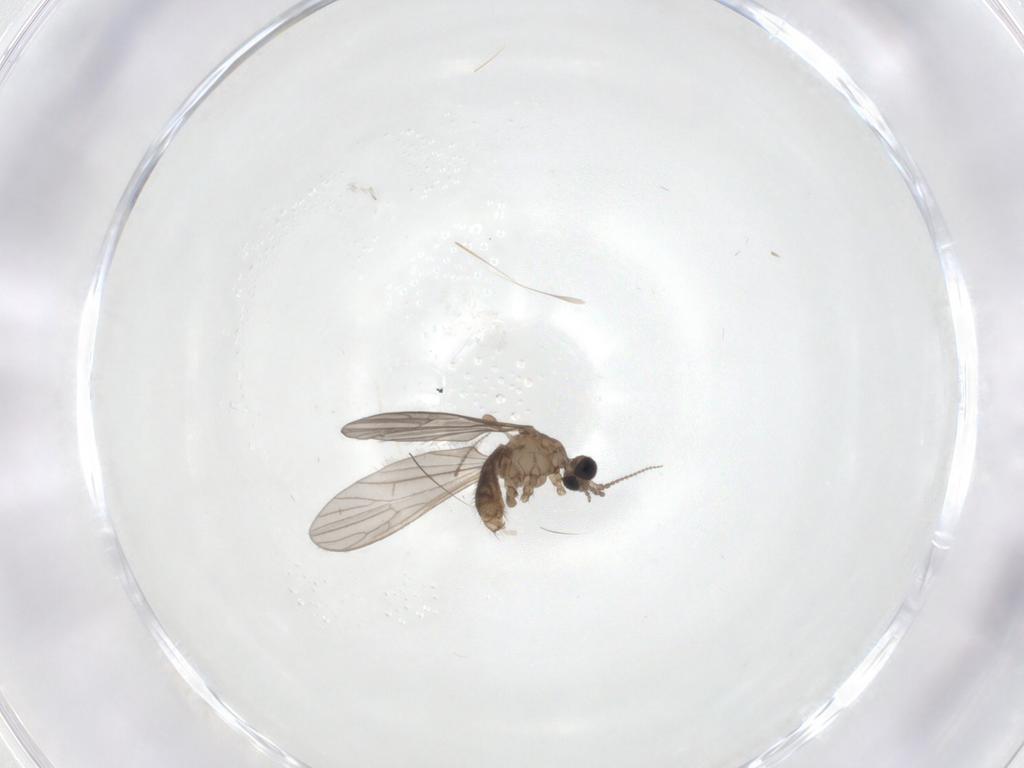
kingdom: Animalia
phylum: Arthropoda
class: Insecta
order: Diptera
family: Limoniidae
